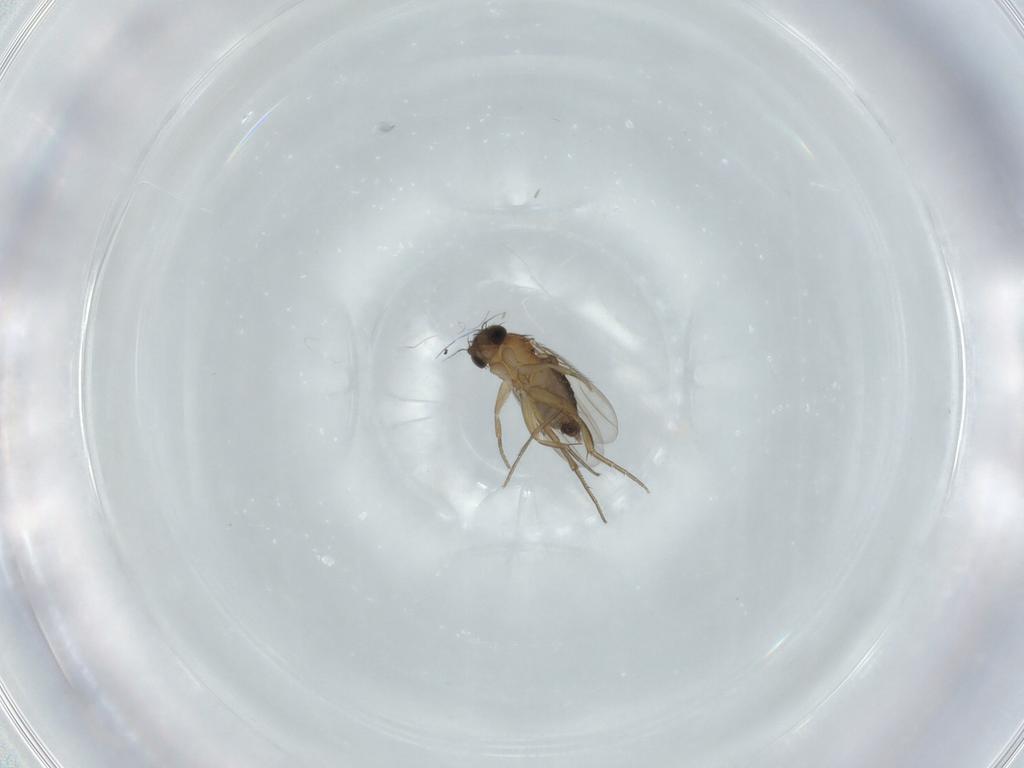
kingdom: Animalia
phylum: Arthropoda
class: Insecta
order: Diptera
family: Phoridae
